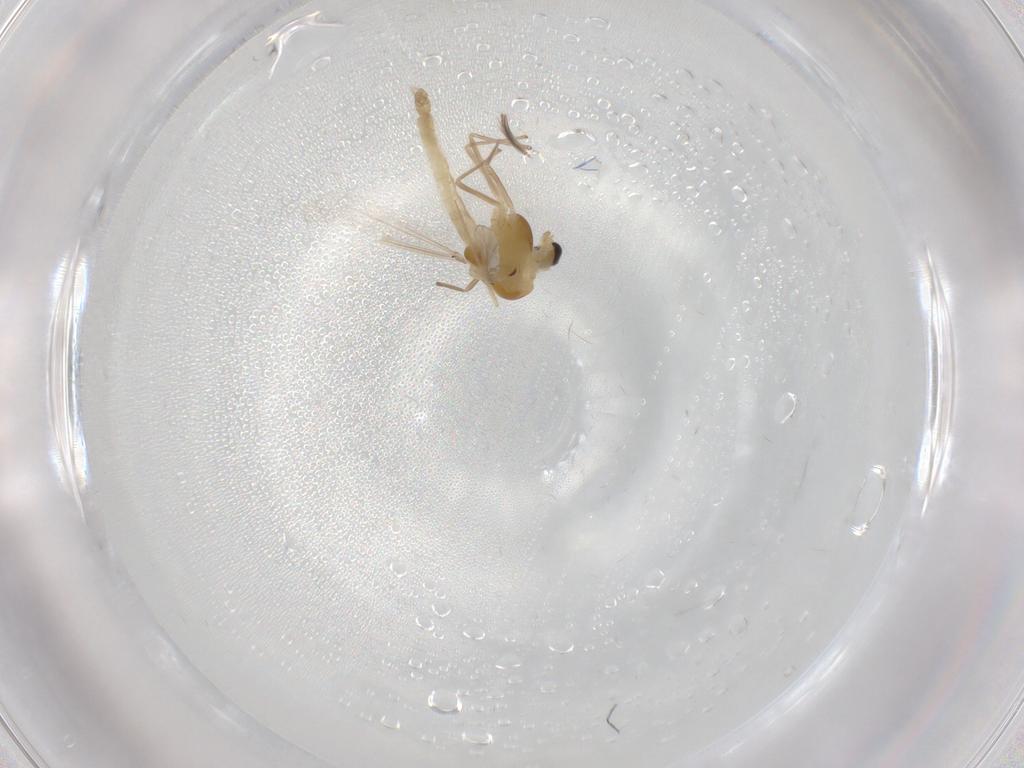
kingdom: Animalia
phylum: Arthropoda
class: Insecta
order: Diptera
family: Chironomidae
